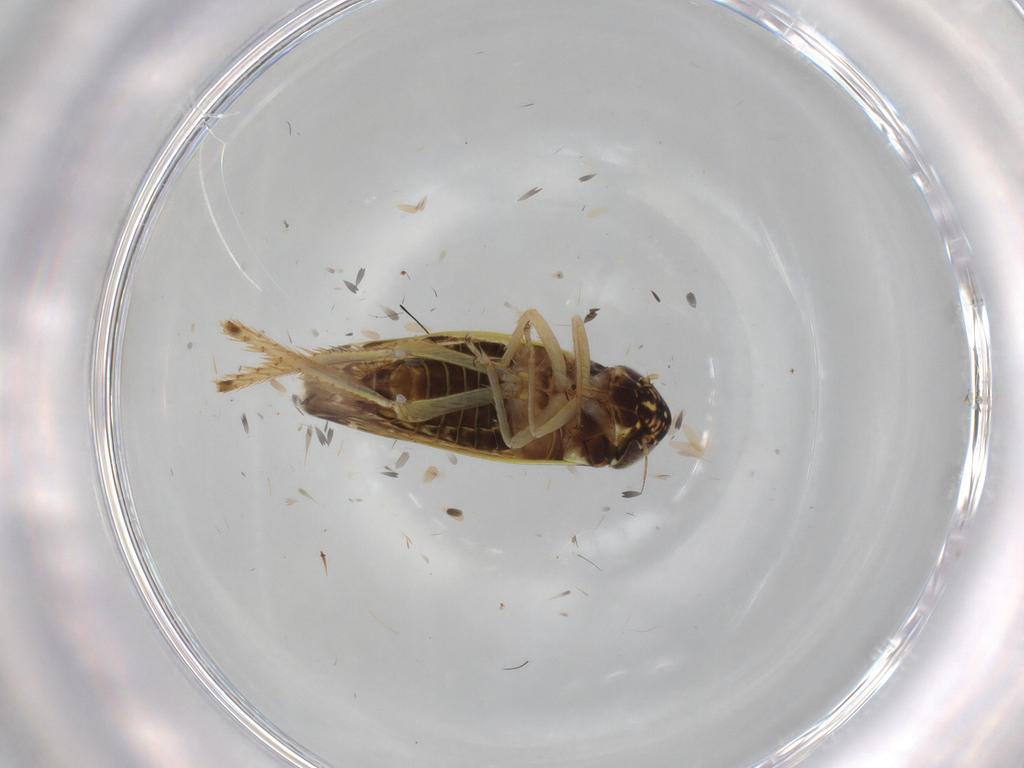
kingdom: Animalia
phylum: Arthropoda
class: Insecta
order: Hemiptera
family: Cicadellidae
